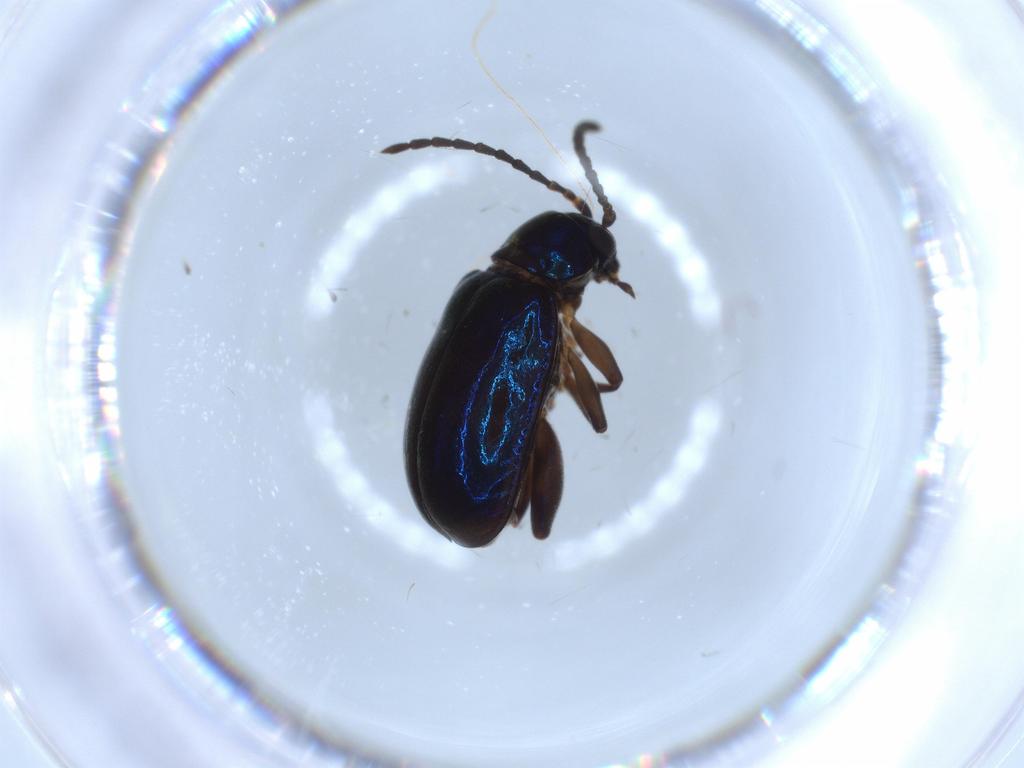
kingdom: Animalia
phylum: Arthropoda
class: Insecta
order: Coleoptera
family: Chrysomelidae
